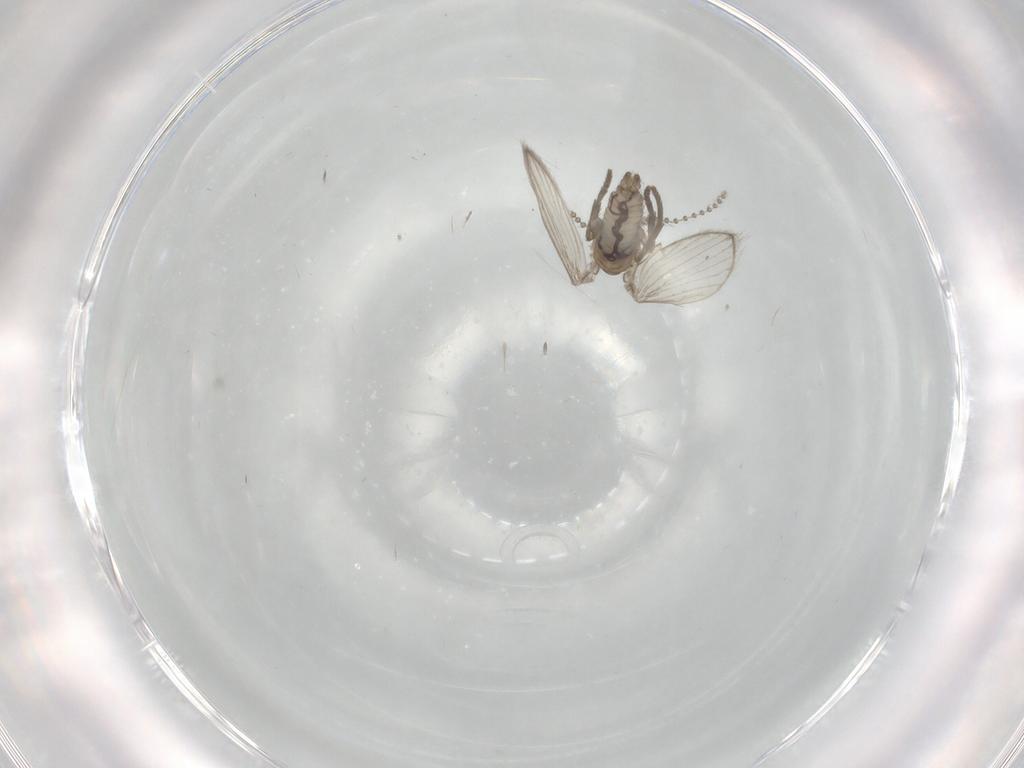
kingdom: Animalia
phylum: Arthropoda
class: Insecta
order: Diptera
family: Psychodidae
